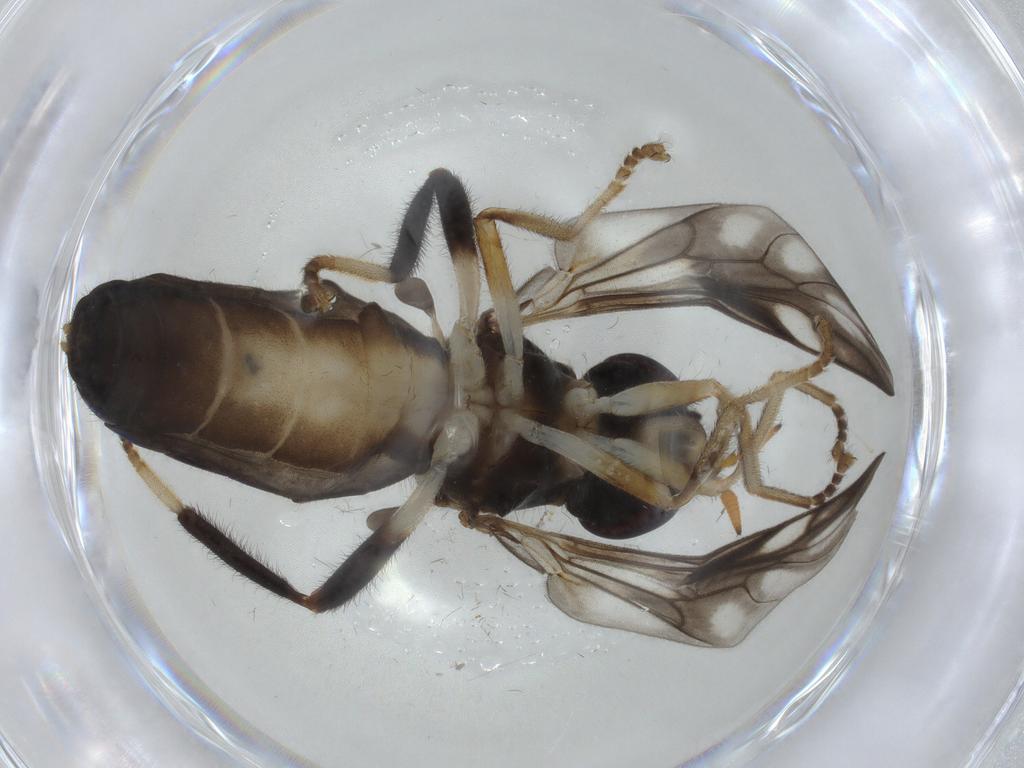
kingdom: Animalia
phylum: Arthropoda
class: Insecta
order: Diptera
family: Stratiomyidae
